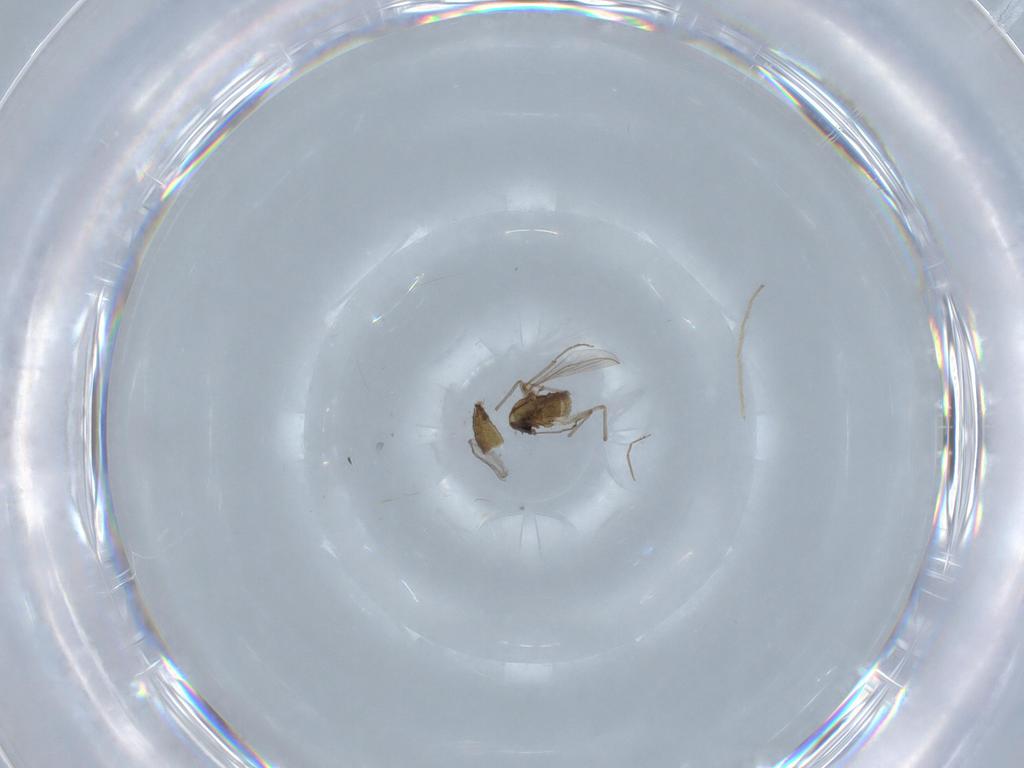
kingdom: Animalia
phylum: Arthropoda
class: Insecta
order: Diptera
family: Chironomidae
